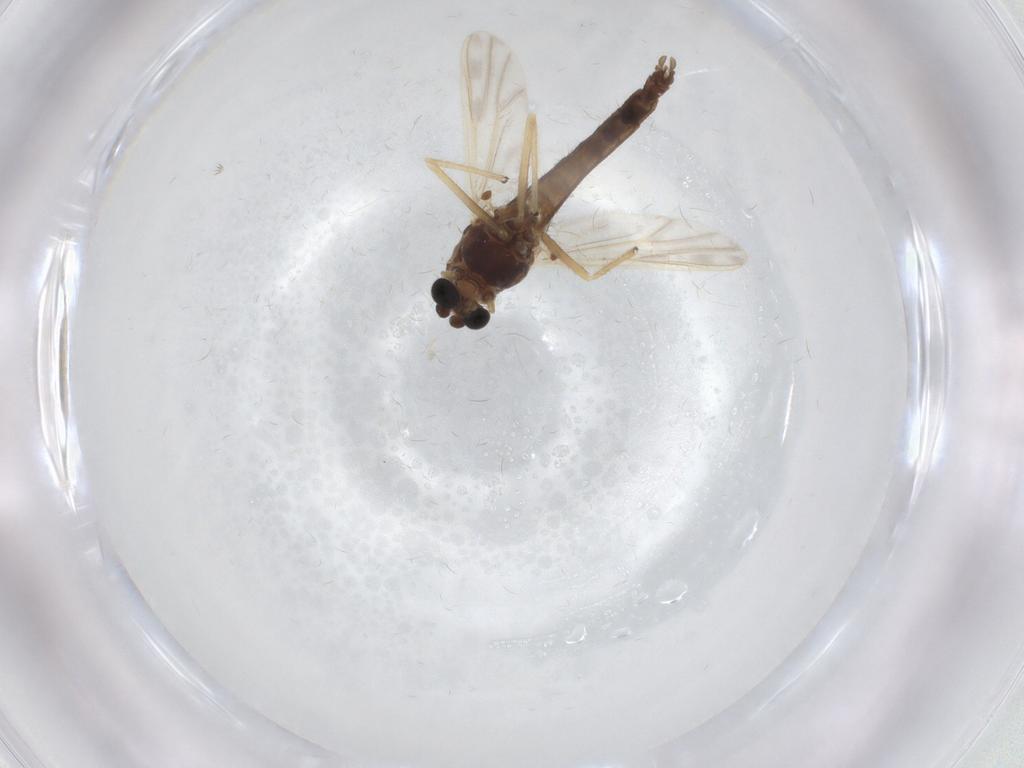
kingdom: Animalia
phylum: Arthropoda
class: Insecta
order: Diptera
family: Chironomidae
